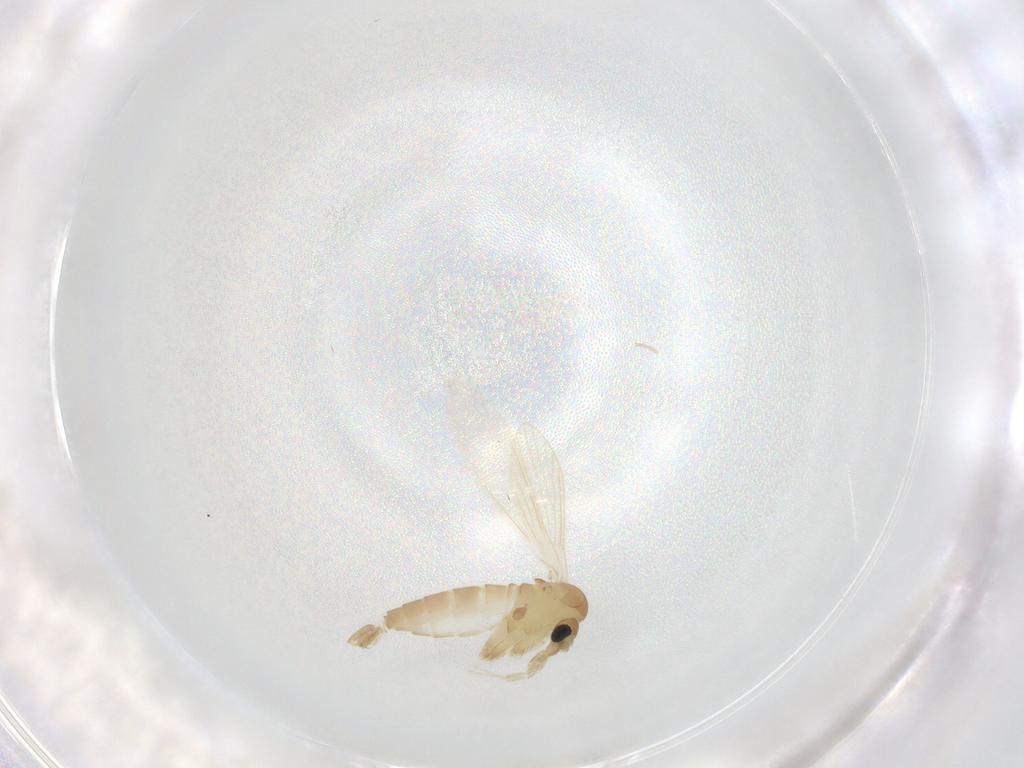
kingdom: Animalia
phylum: Arthropoda
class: Insecta
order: Diptera
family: Psychodidae
